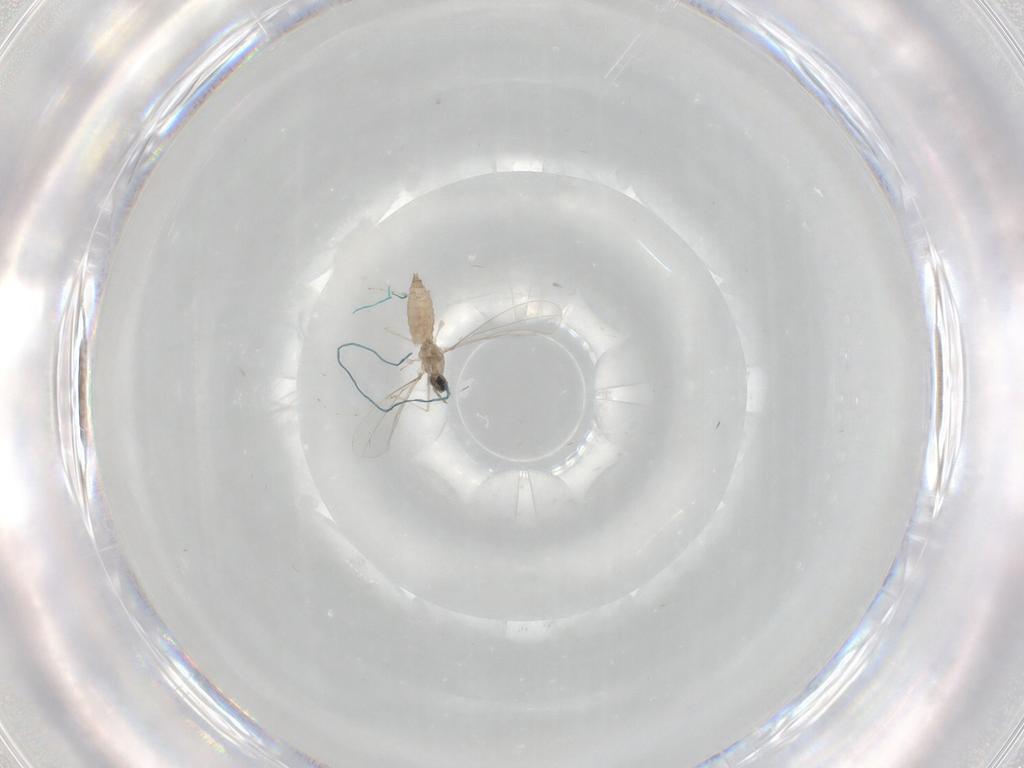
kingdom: Animalia
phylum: Arthropoda
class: Insecta
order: Diptera
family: Cecidomyiidae
